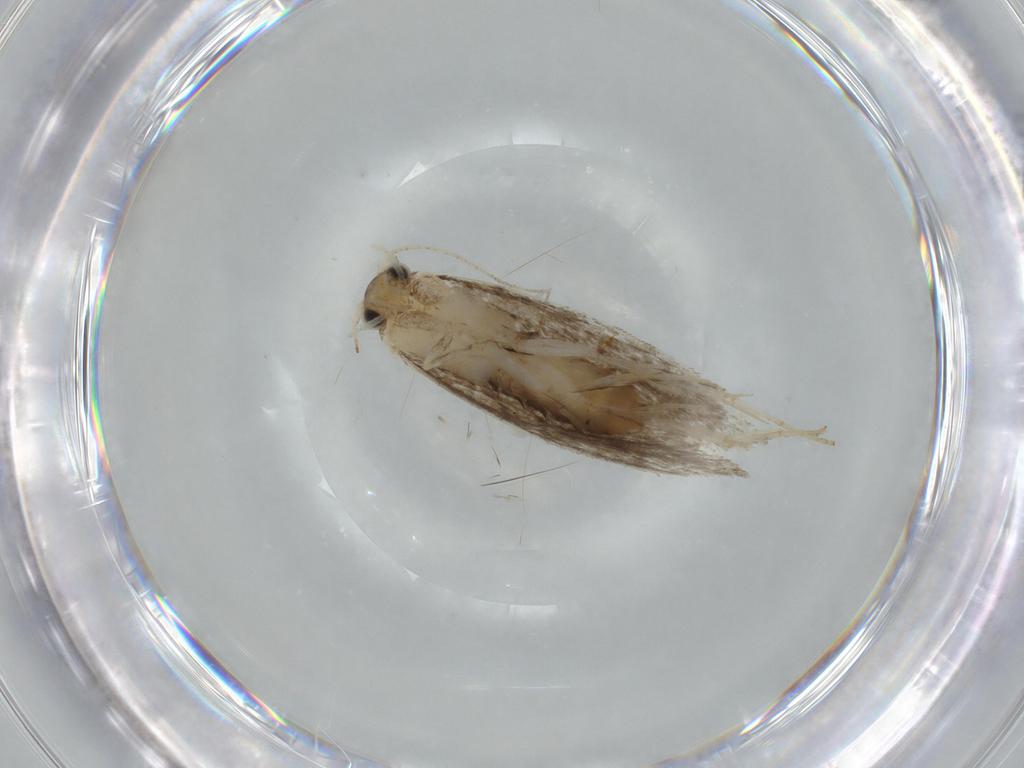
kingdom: Animalia
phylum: Arthropoda
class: Insecta
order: Lepidoptera
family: Tineidae
